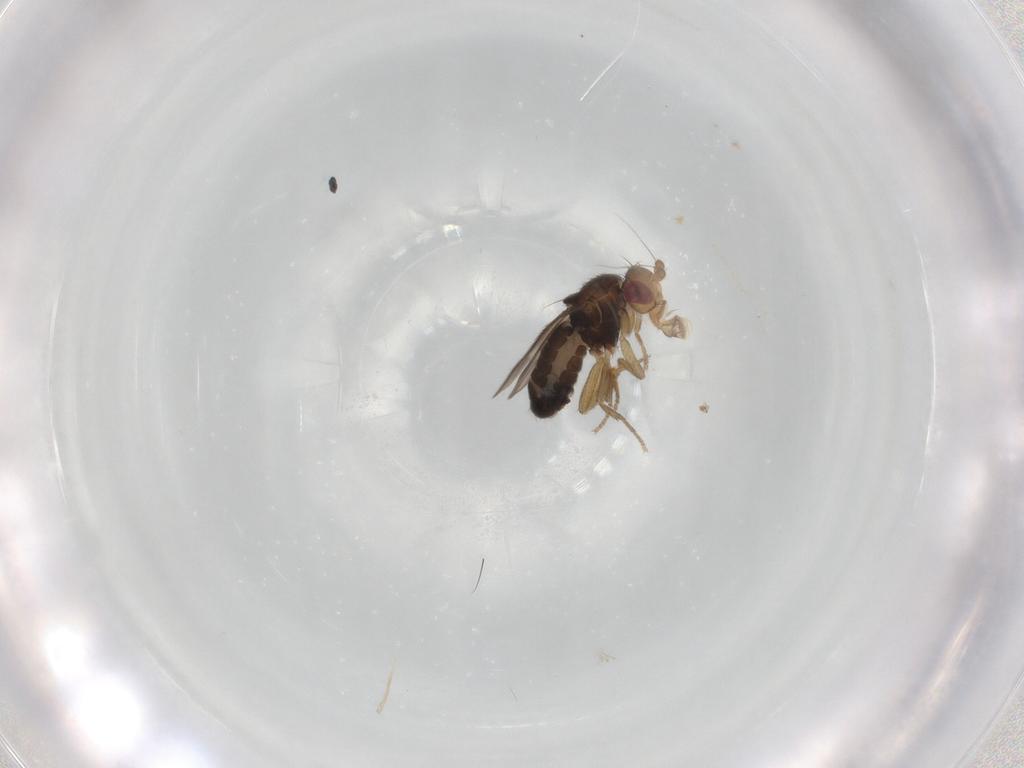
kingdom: Animalia
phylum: Arthropoda
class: Insecta
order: Diptera
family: Sphaeroceridae
